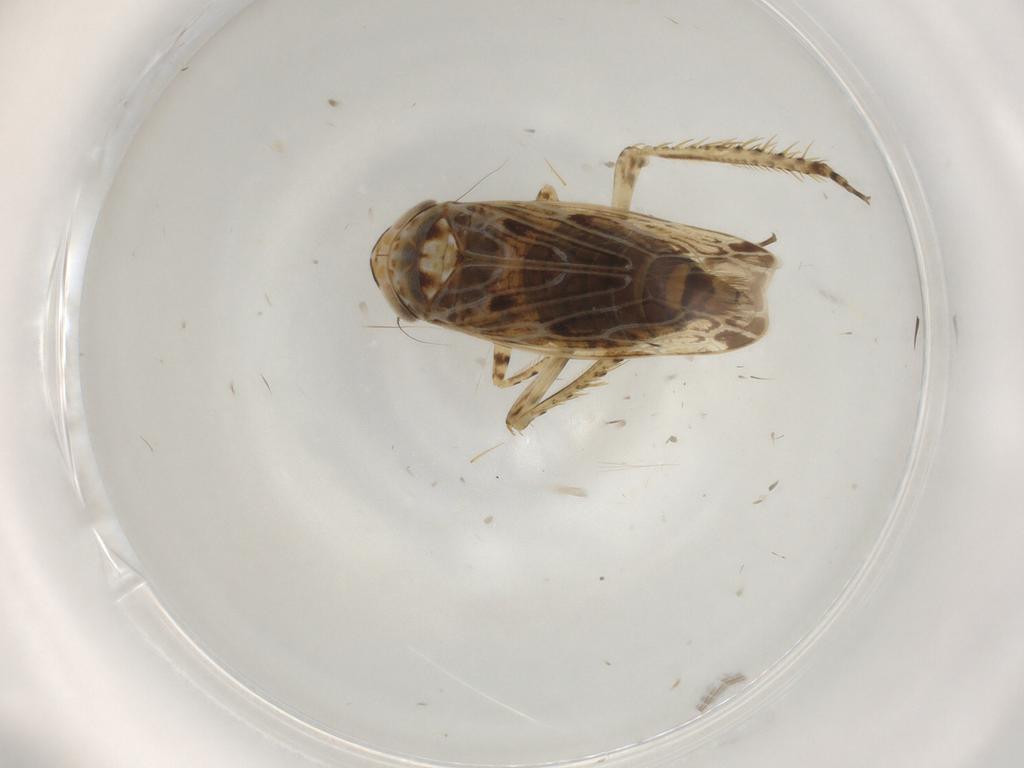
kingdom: Animalia
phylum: Arthropoda
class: Insecta
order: Hemiptera
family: Cicadellidae
